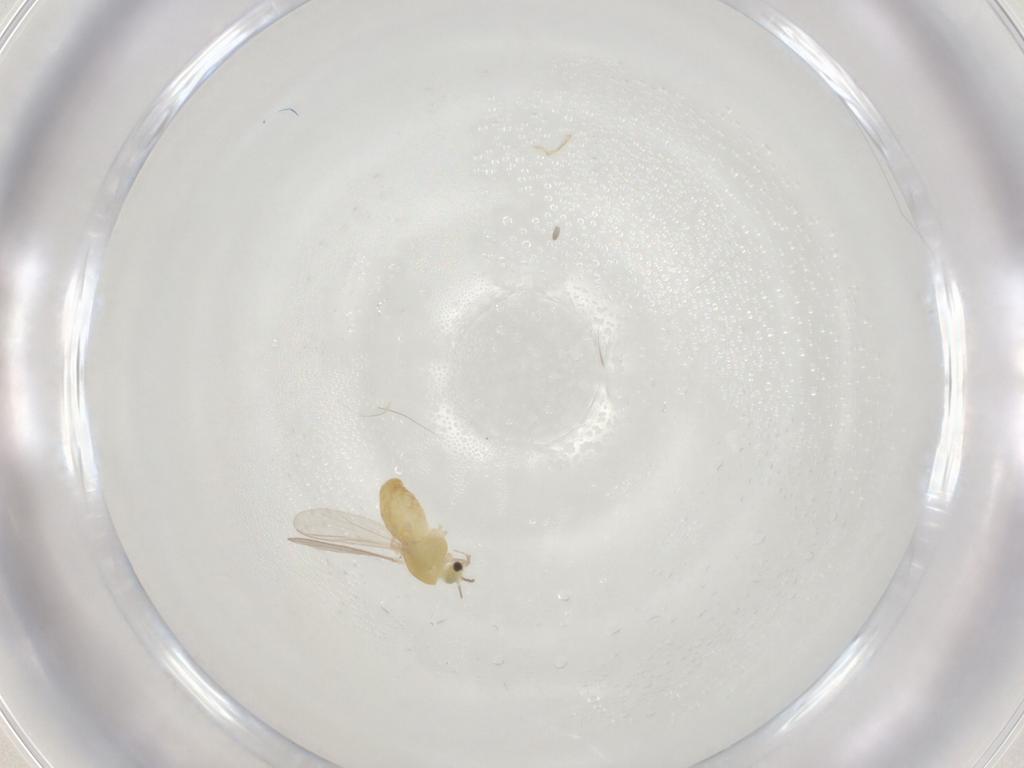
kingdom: Animalia
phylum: Arthropoda
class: Insecta
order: Diptera
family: Chironomidae
